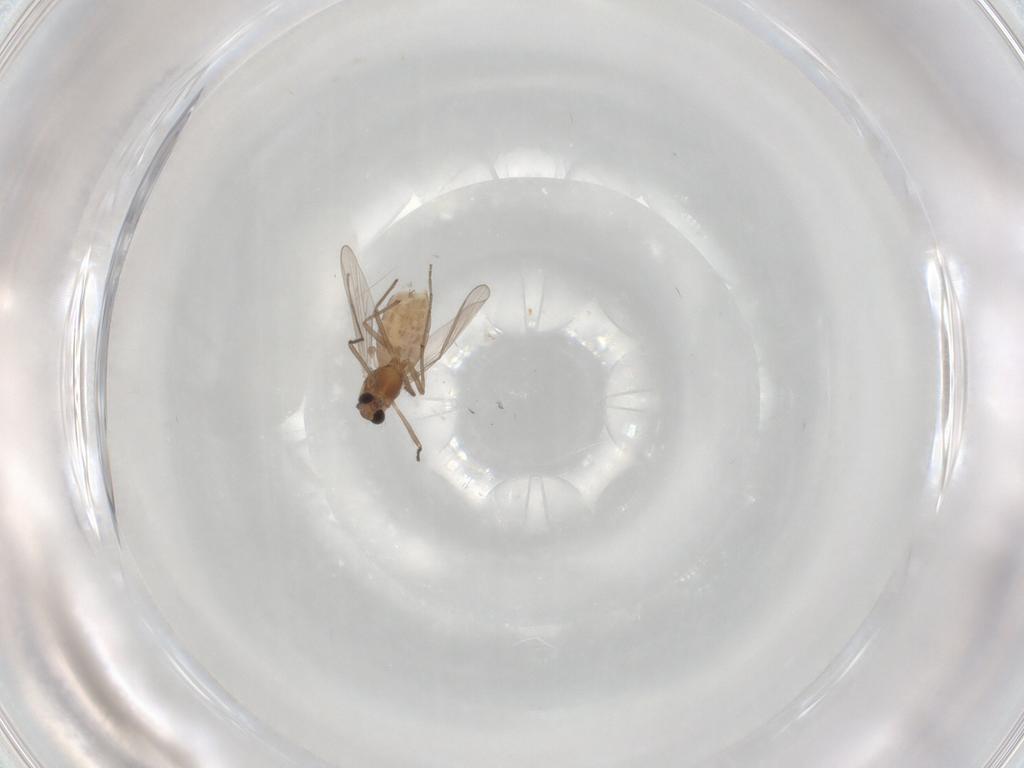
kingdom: Animalia
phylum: Arthropoda
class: Insecta
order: Diptera
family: Chironomidae
